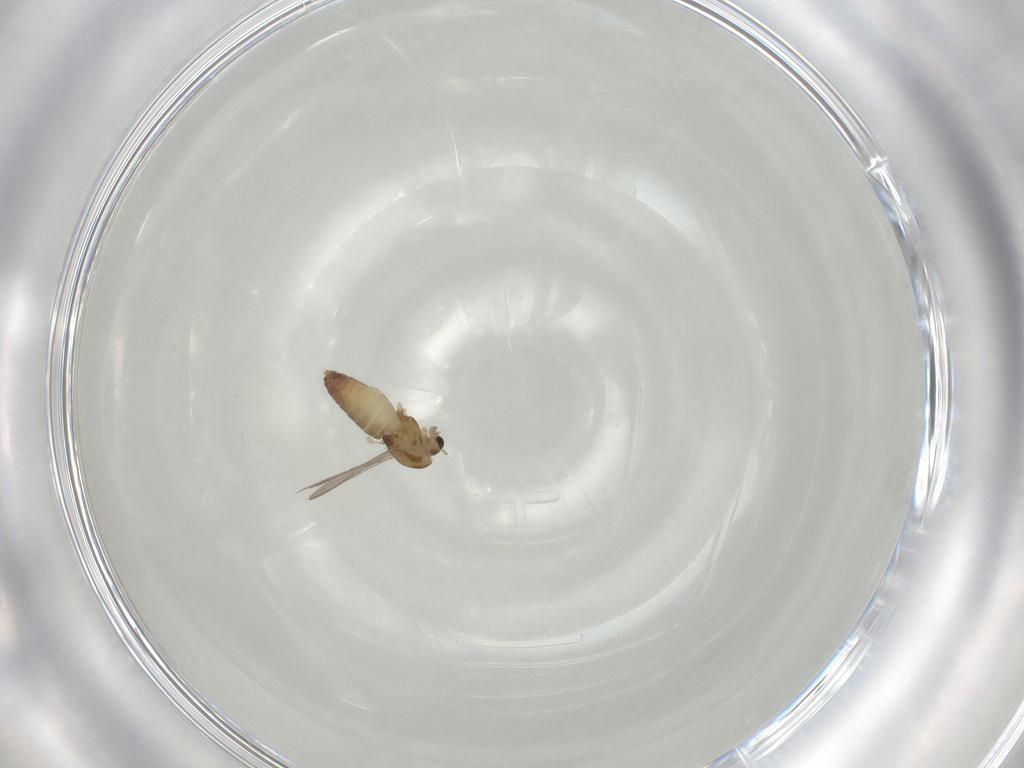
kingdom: Animalia
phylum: Arthropoda
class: Insecta
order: Diptera
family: Chironomidae
